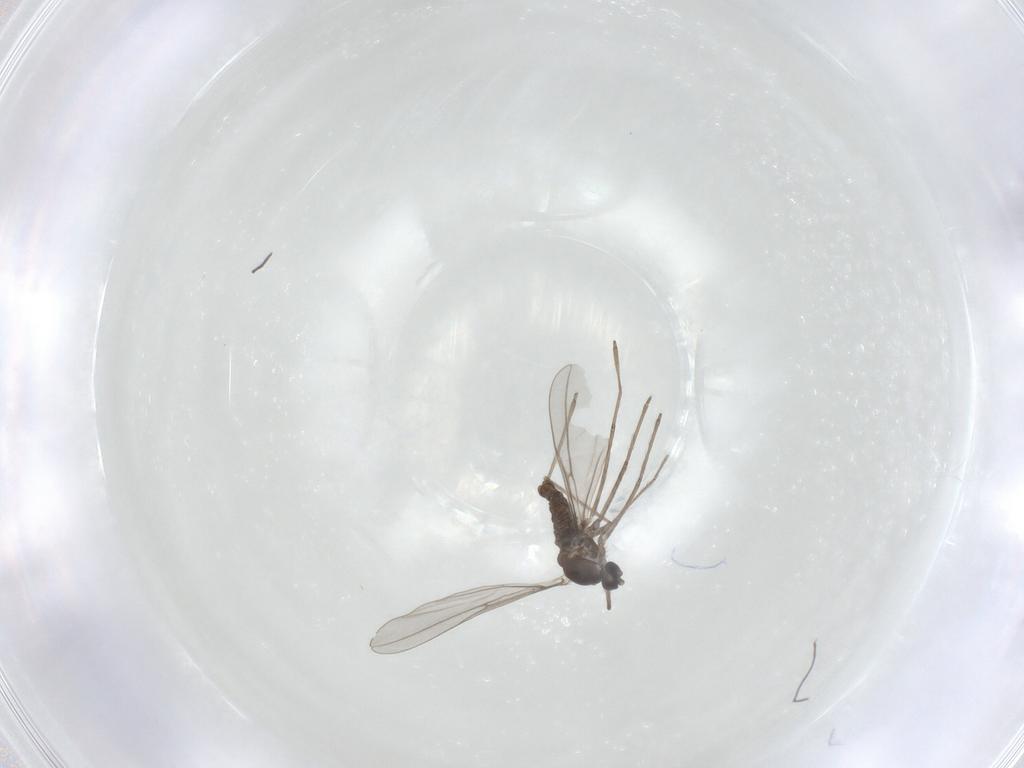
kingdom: Animalia
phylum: Arthropoda
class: Insecta
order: Diptera
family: Cecidomyiidae
